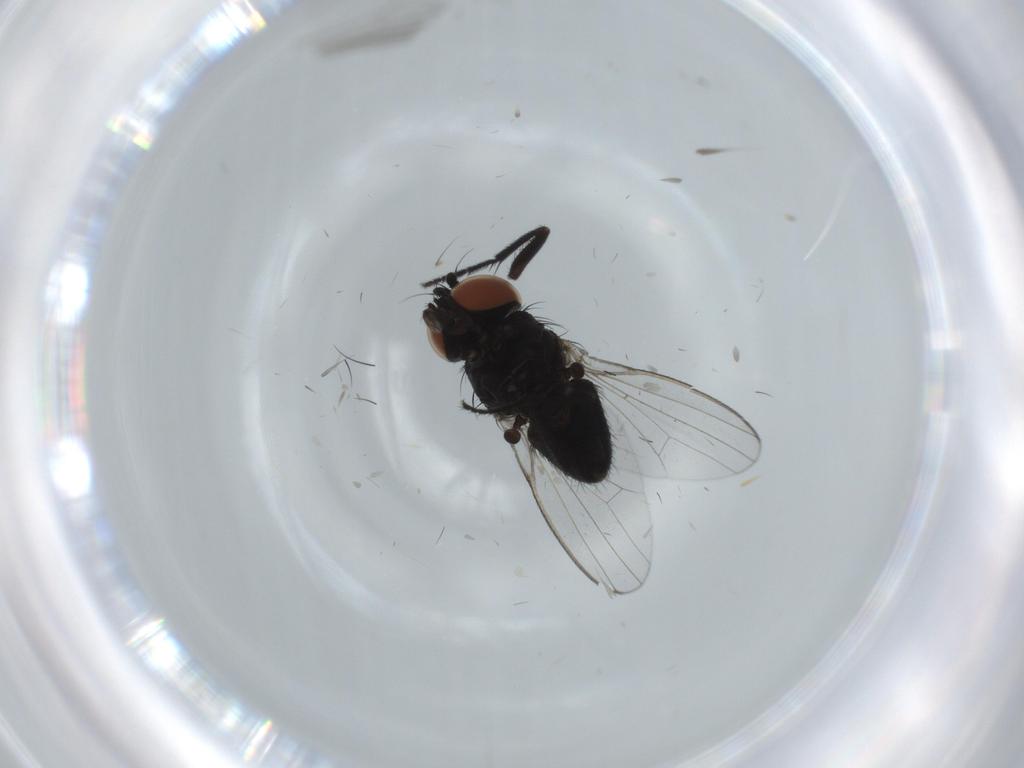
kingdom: Animalia
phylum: Arthropoda
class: Insecta
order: Diptera
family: Milichiidae
